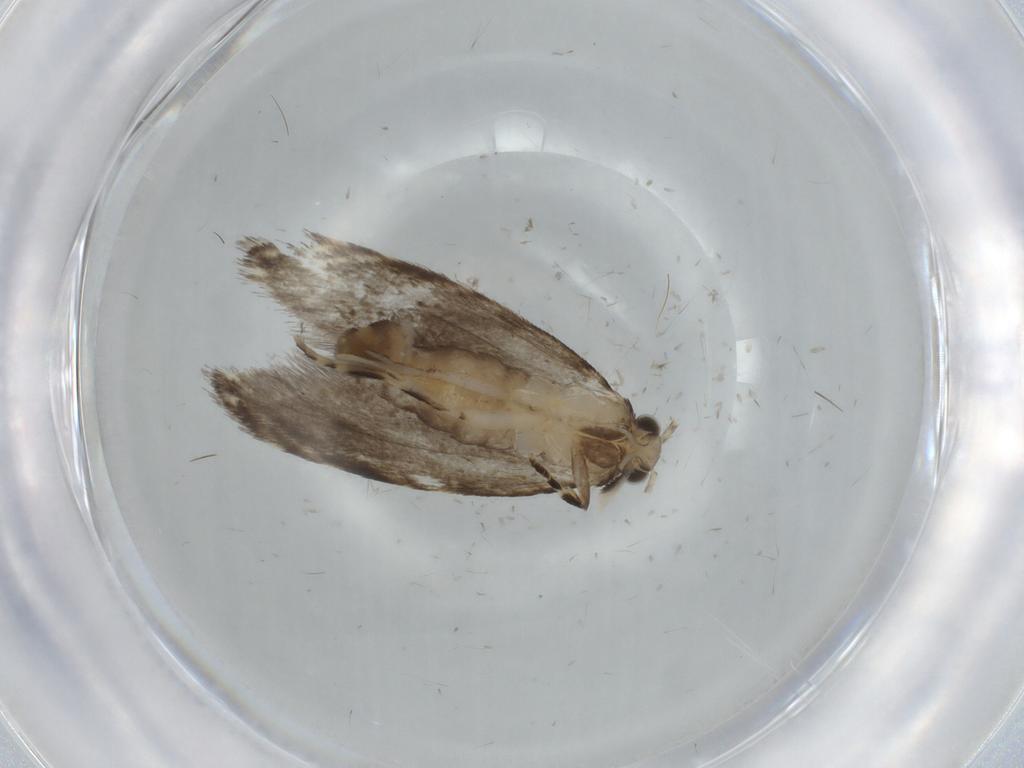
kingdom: Animalia
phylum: Arthropoda
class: Insecta
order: Lepidoptera
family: Tineidae
